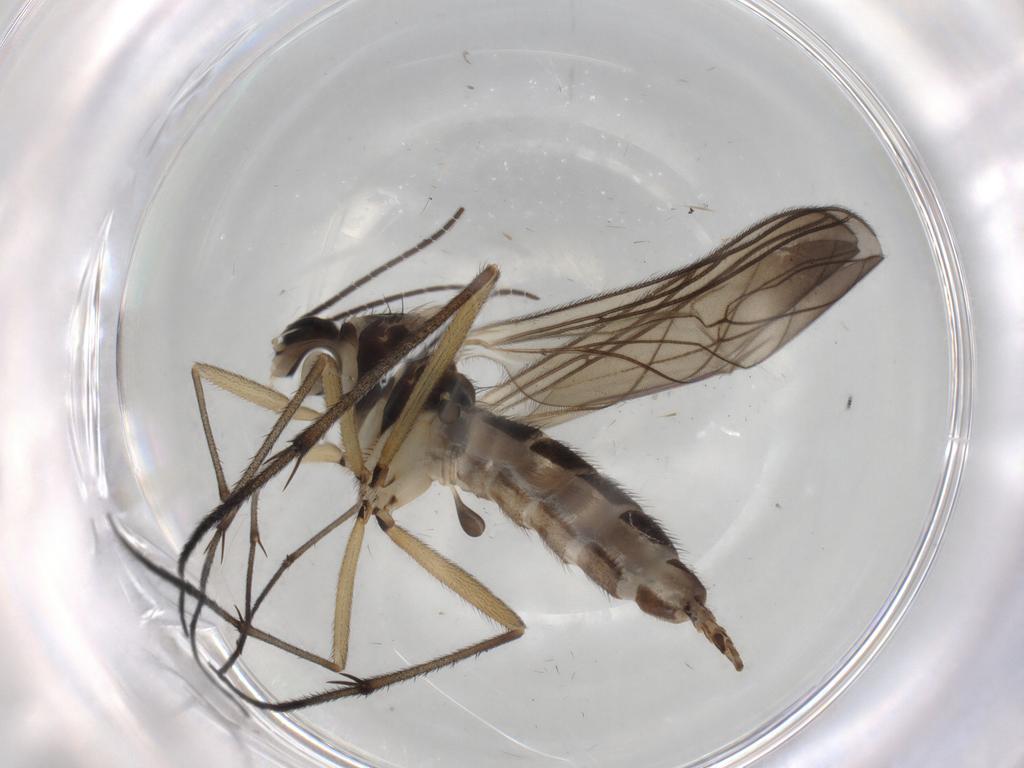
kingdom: Animalia
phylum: Arthropoda
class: Insecta
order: Diptera
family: Sciaridae
